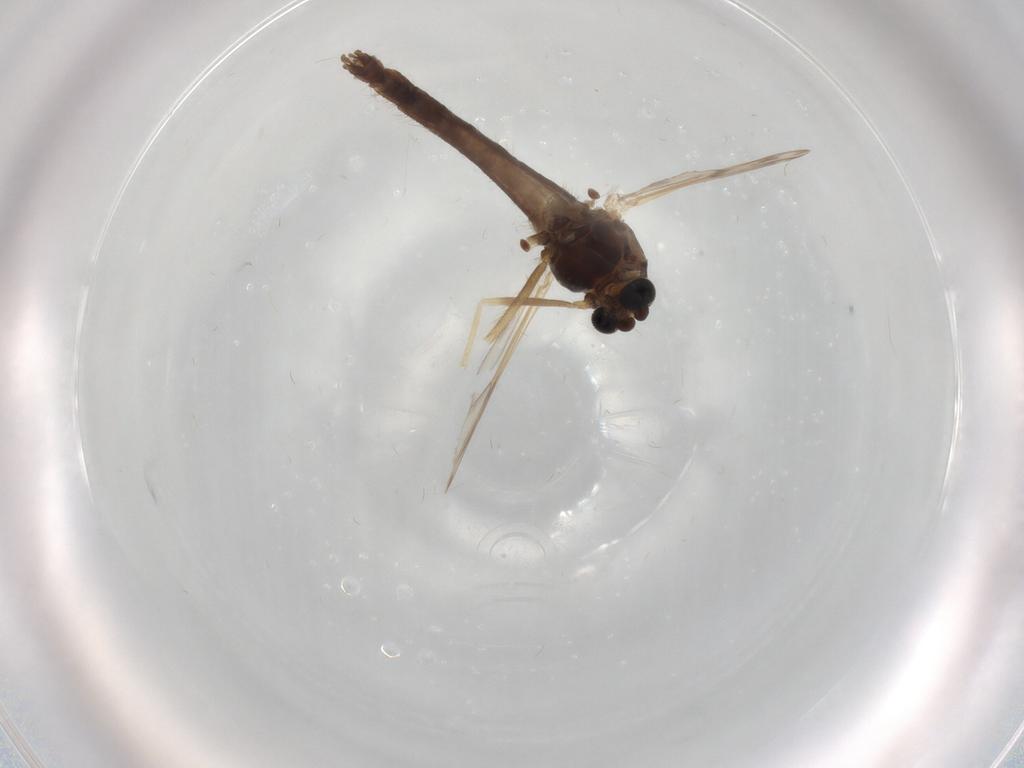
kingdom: Animalia
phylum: Arthropoda
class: Insecta
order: Diptera
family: Chironomidae
